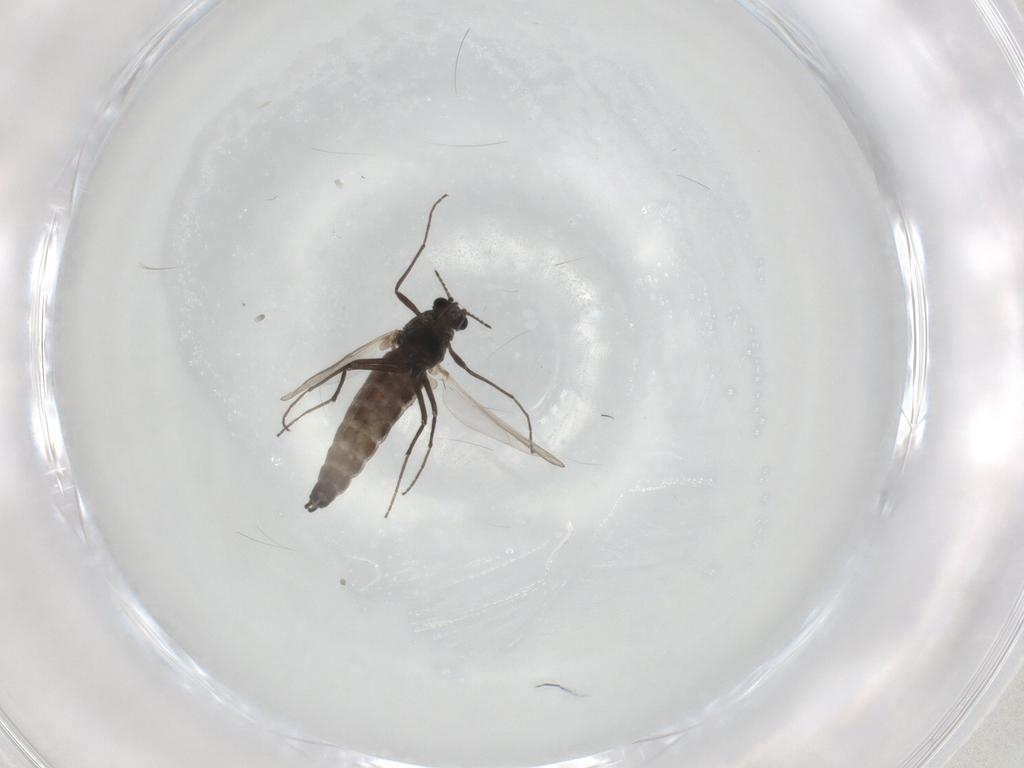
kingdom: Animalia
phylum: Arthropoda
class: Insecta
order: Diptera
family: Chironomidae
